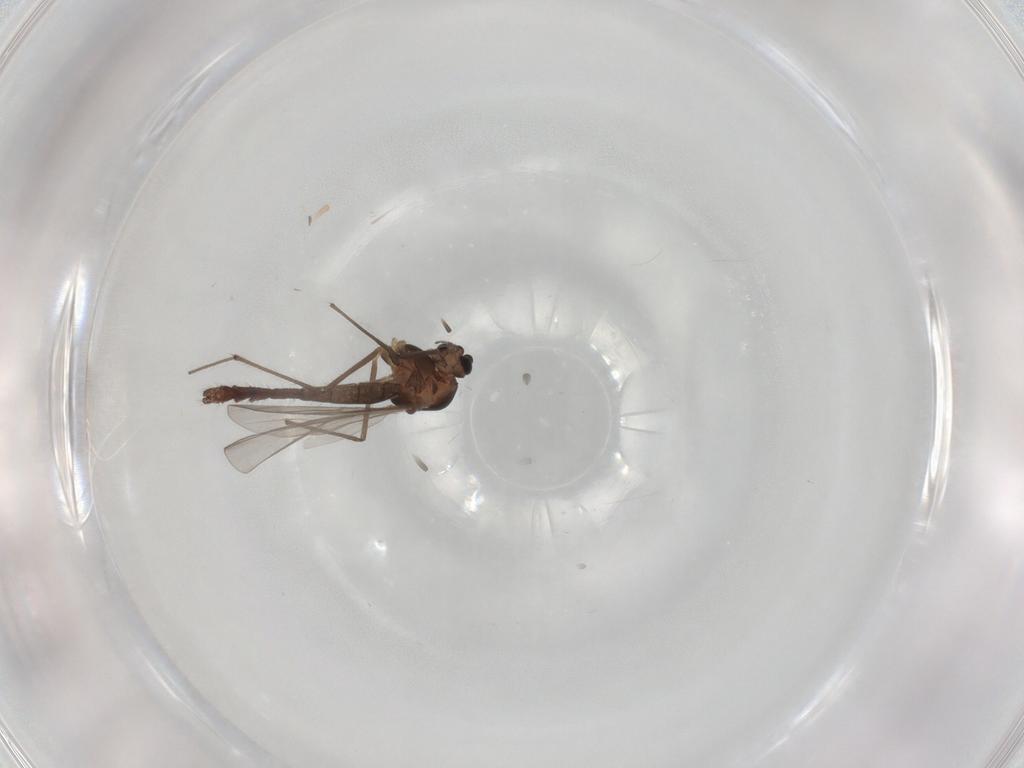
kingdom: Animalia
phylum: Arthropoda
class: Insecta
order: Diptera
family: Chironomidae
